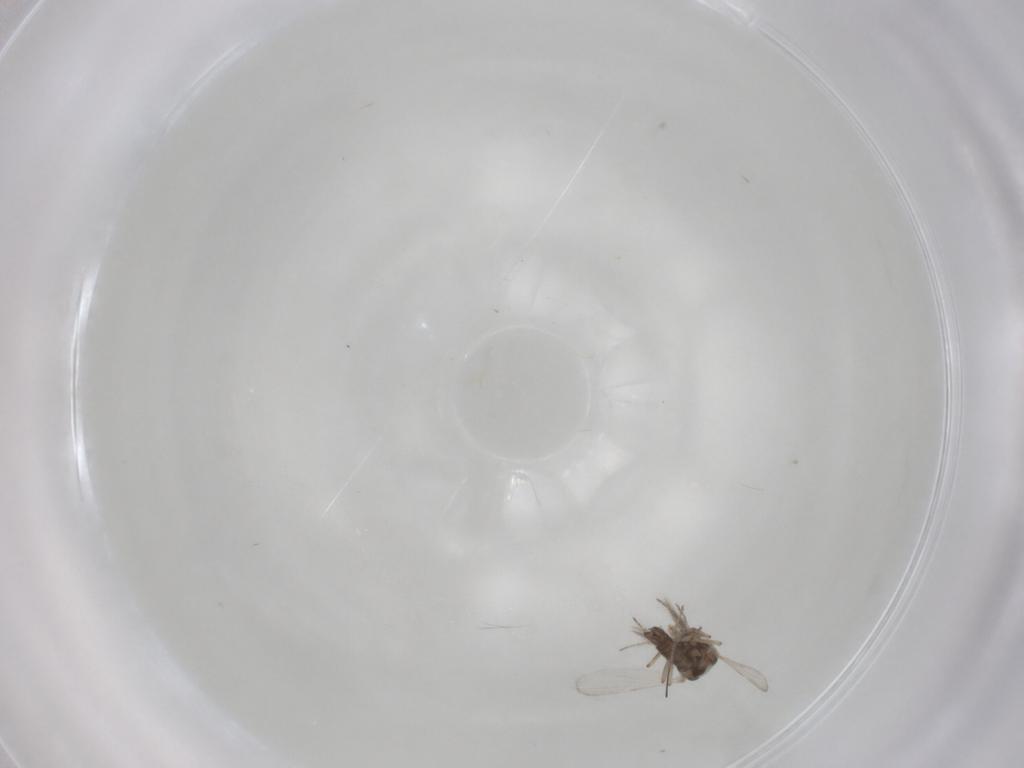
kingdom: Animalia
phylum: Arthropoda
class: Insecta
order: Diptera
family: Ceratopogonidae
